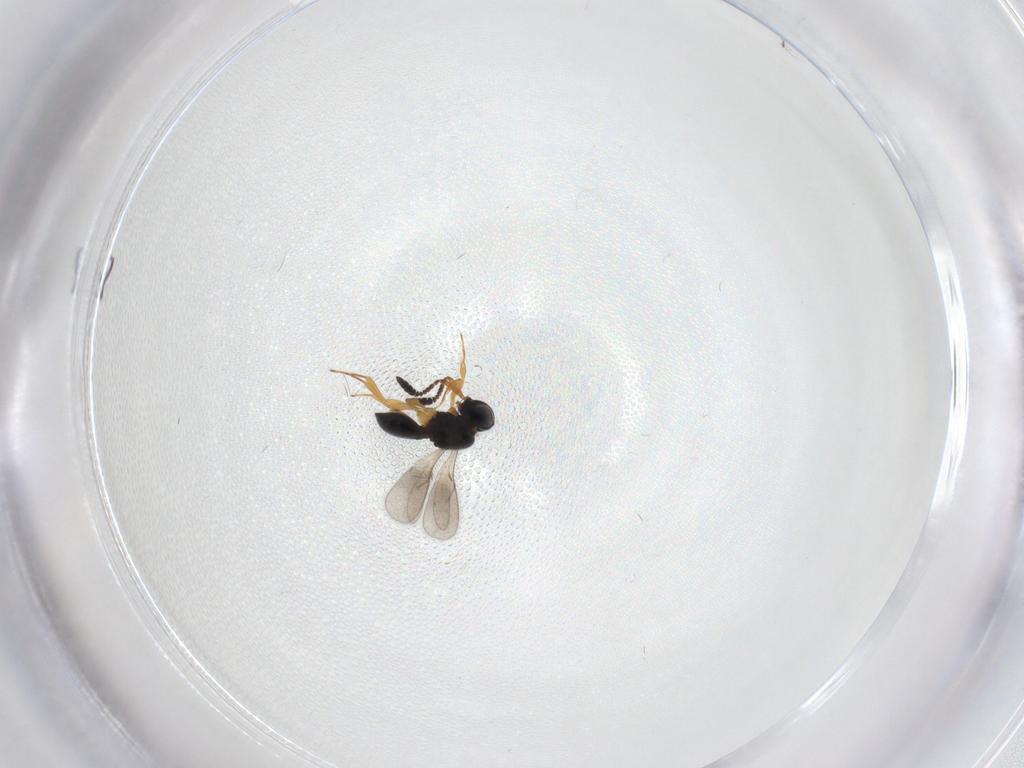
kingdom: Animalia
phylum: Arthropoda
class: Insecta
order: Hymenoptera
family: Scelionidae
